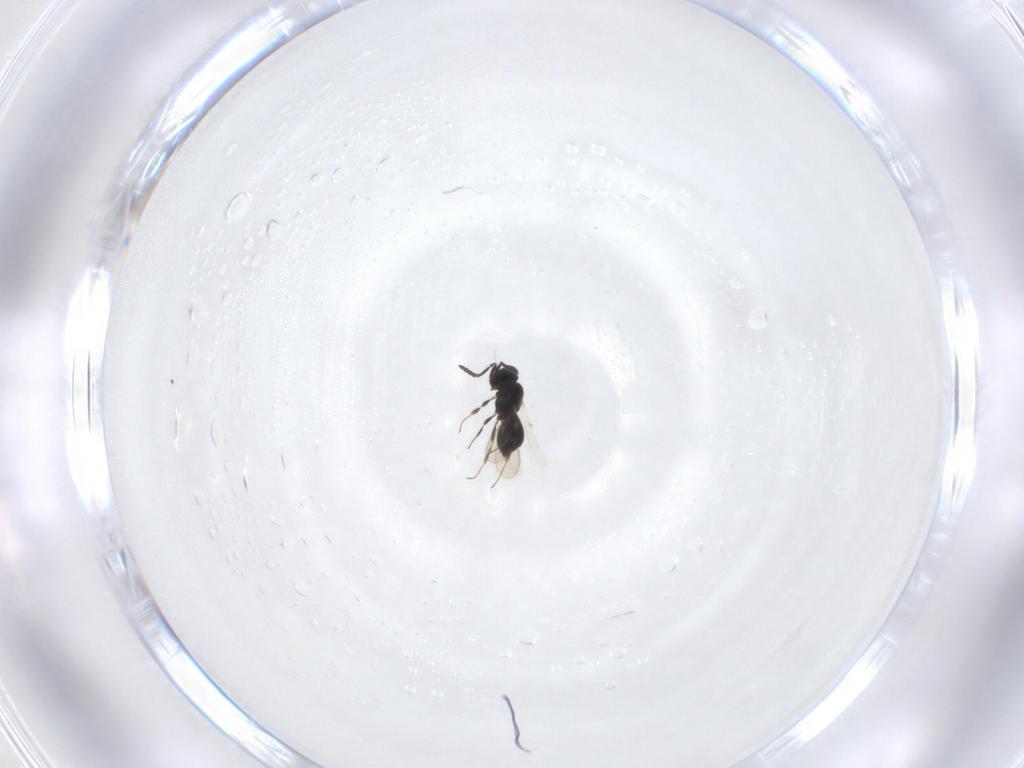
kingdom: Animalia
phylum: Arthropoda
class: Insecta
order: Hymenoptera
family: Scelionidae
